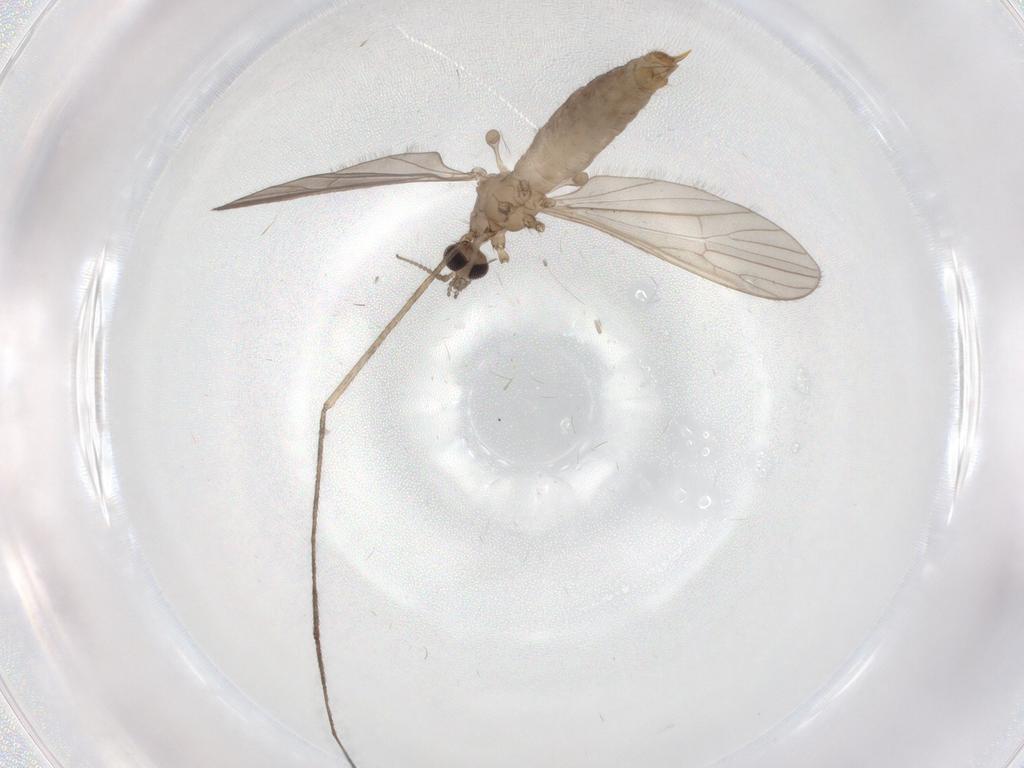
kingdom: Animalia
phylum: Arthropoda
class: Insecta
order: Diptera
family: Limoniidae
